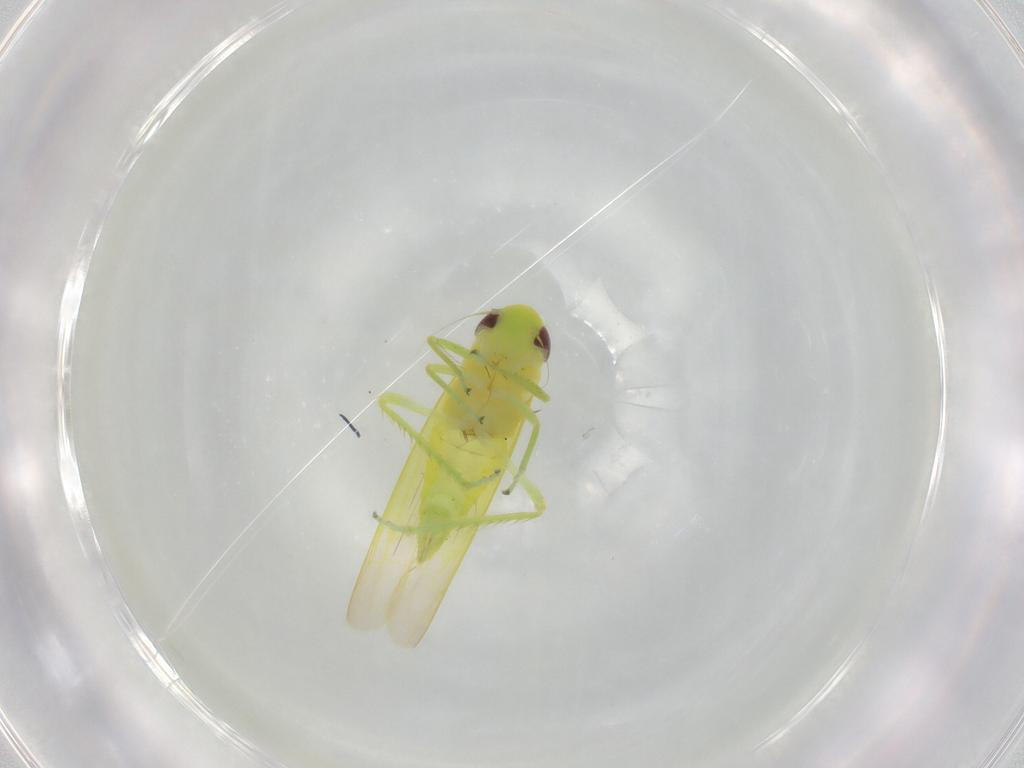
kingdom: Animalia
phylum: Arthropoda
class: Insecta
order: Hemiptera
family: Cicadellidae
